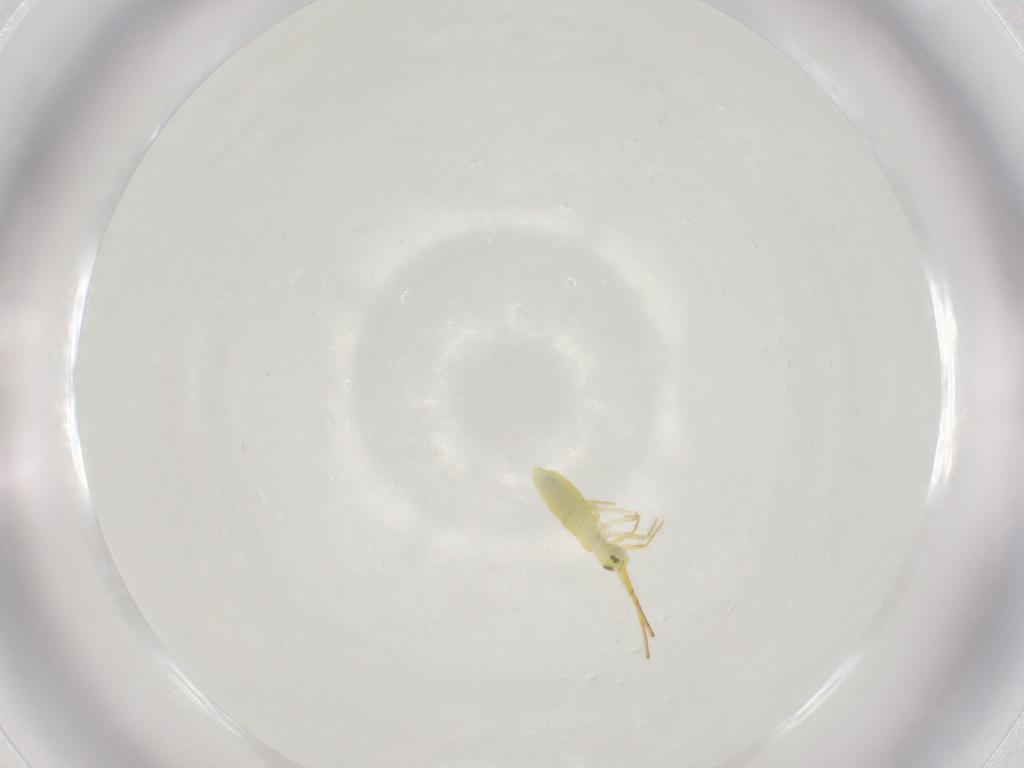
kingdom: Animalia
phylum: Arthropoda
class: Collembola
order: Entomobryomorpha
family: Entomobryidae
